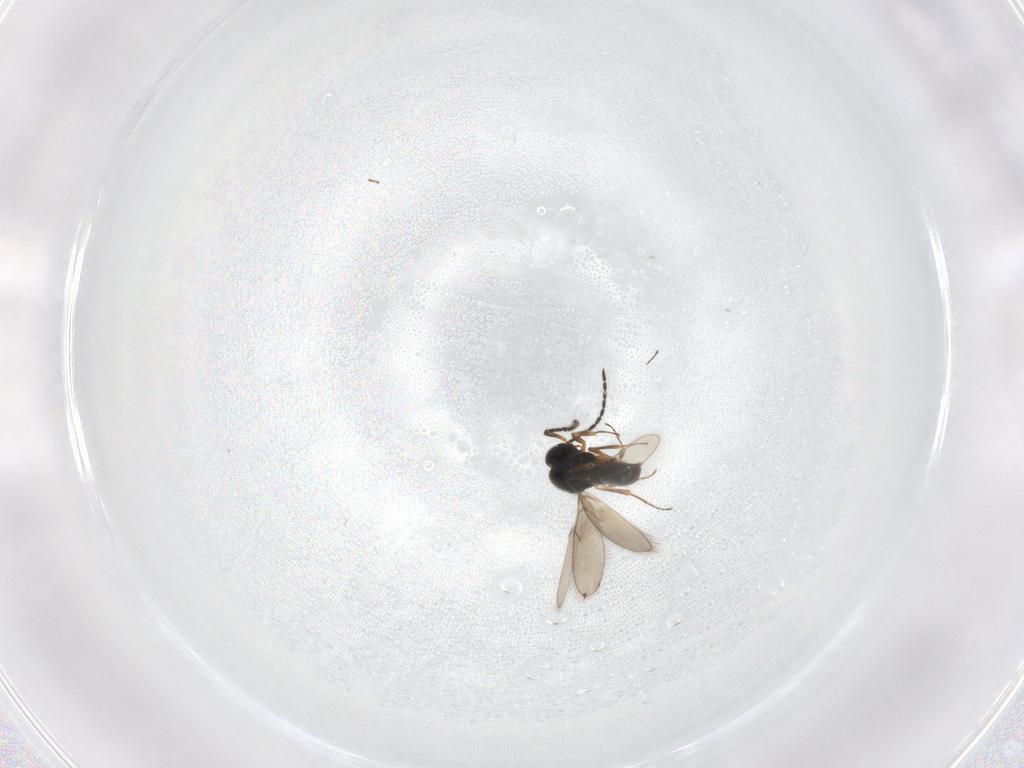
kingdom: Animalia
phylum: Arthropoda
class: Insecta
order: Hymenoptera
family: Scelionidae
